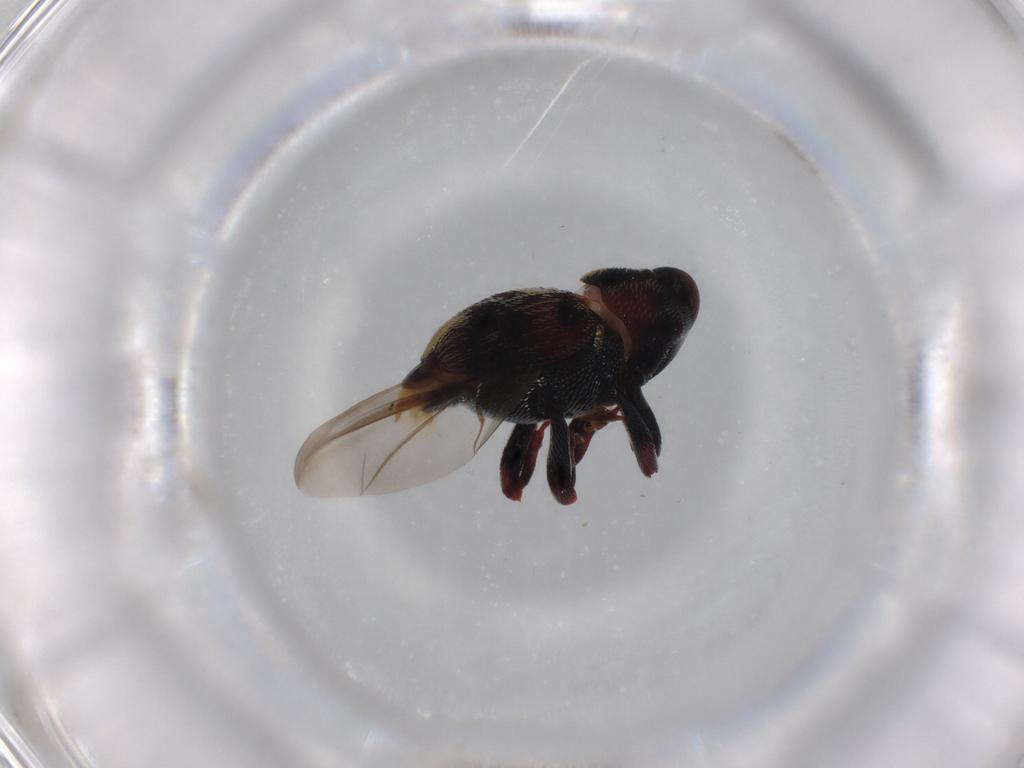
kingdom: Animalia
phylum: Arthropoda
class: Insecta
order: Coleoptera
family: Curculionidae
